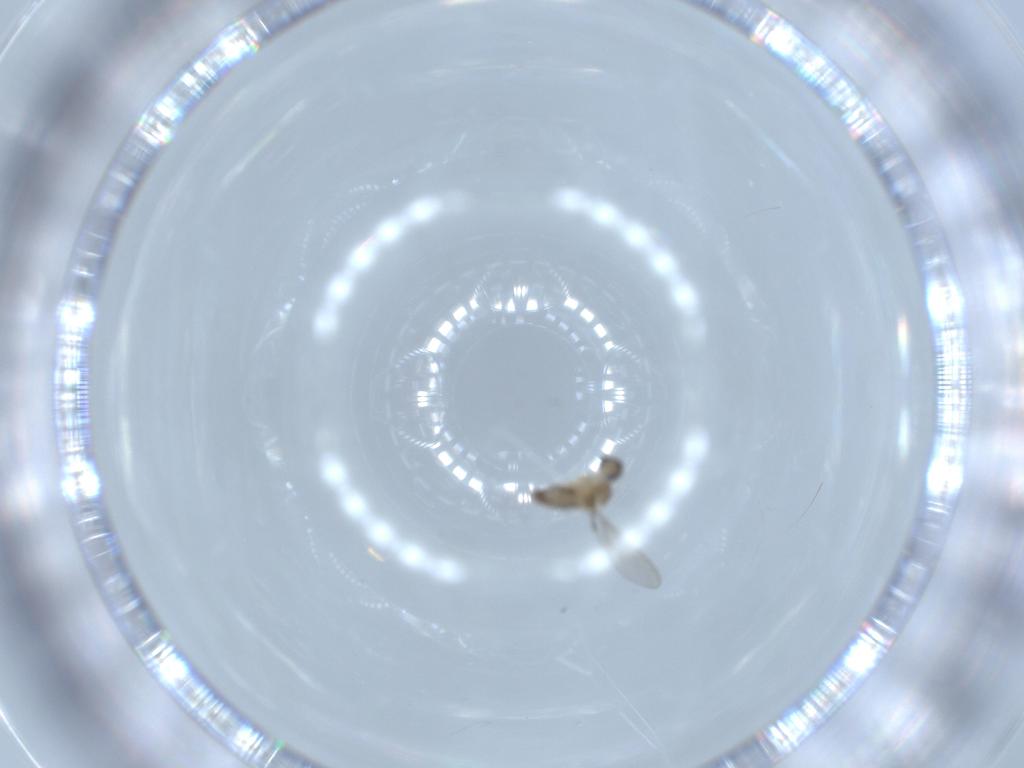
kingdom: Animalia
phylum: Arthropoda
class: Insecta
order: Diptera
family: Cecidomyiidae
